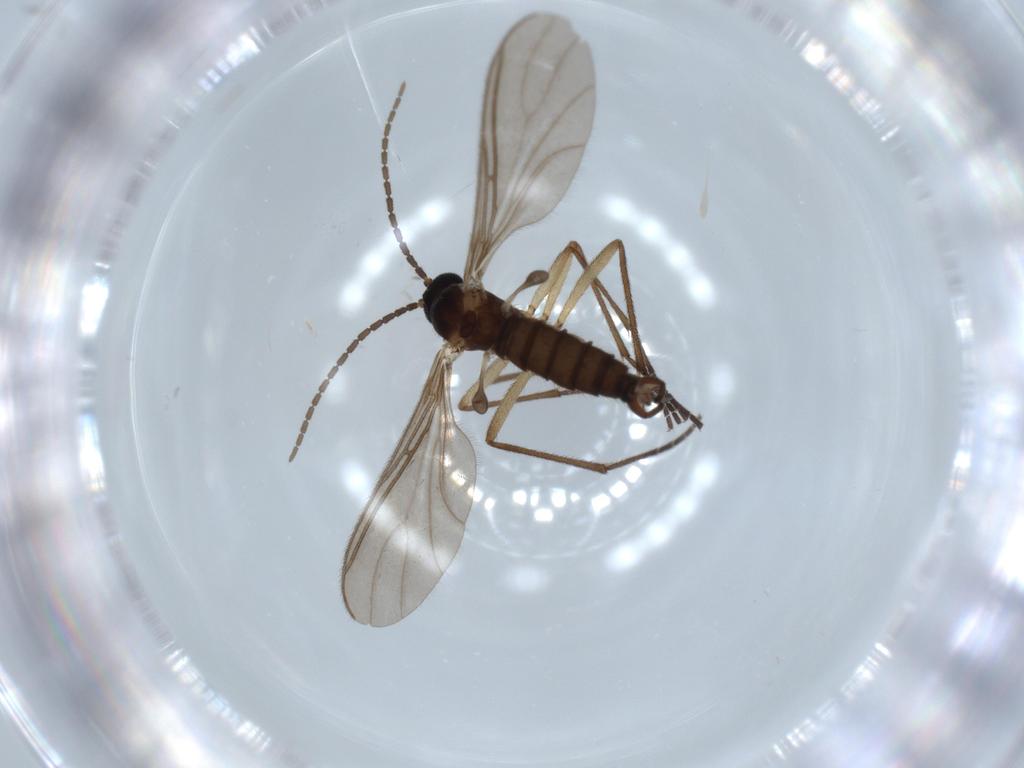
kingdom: Animalia
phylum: Arthropoda
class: Insecta
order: Diptera
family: Sciaridae
